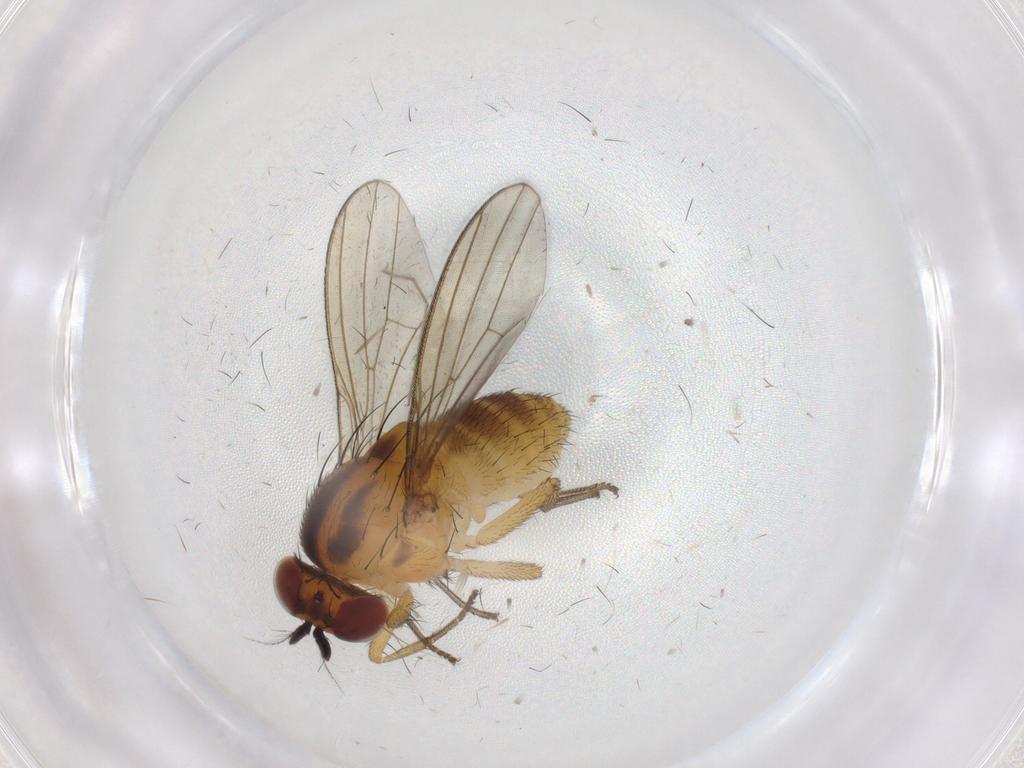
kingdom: Animalia
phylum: Arthropoda
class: Insecta
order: Diptera
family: Chironomidae
